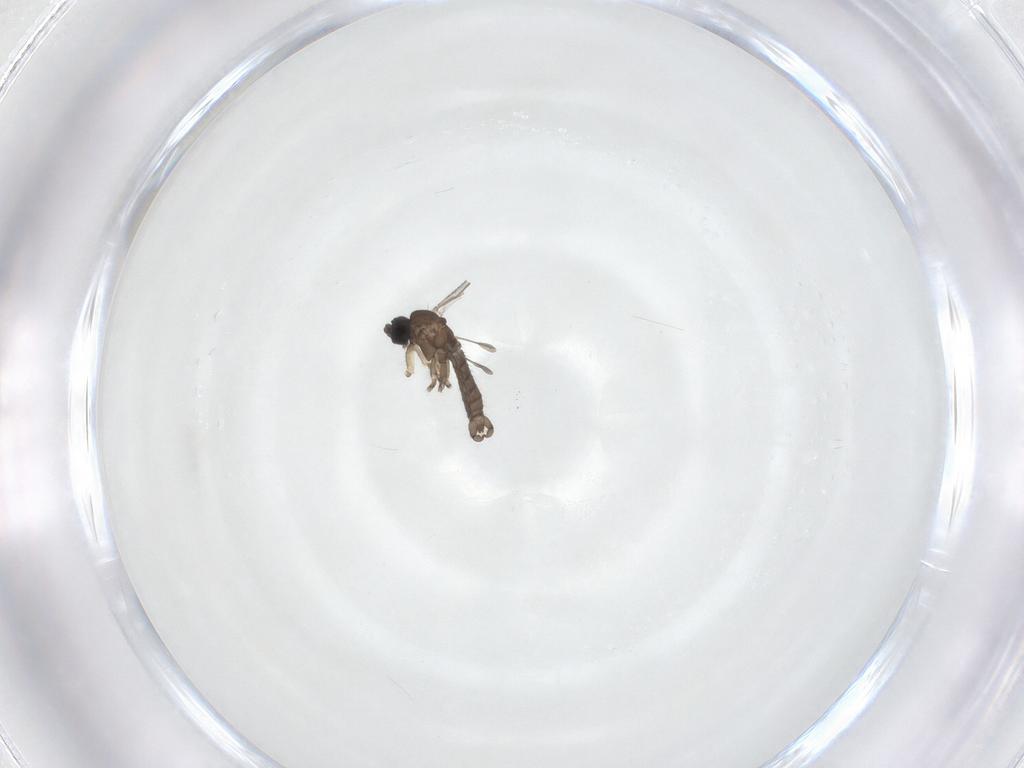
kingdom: Animalia
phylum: Arthropoda
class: Insecta
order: Diptera
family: Sciaridae
